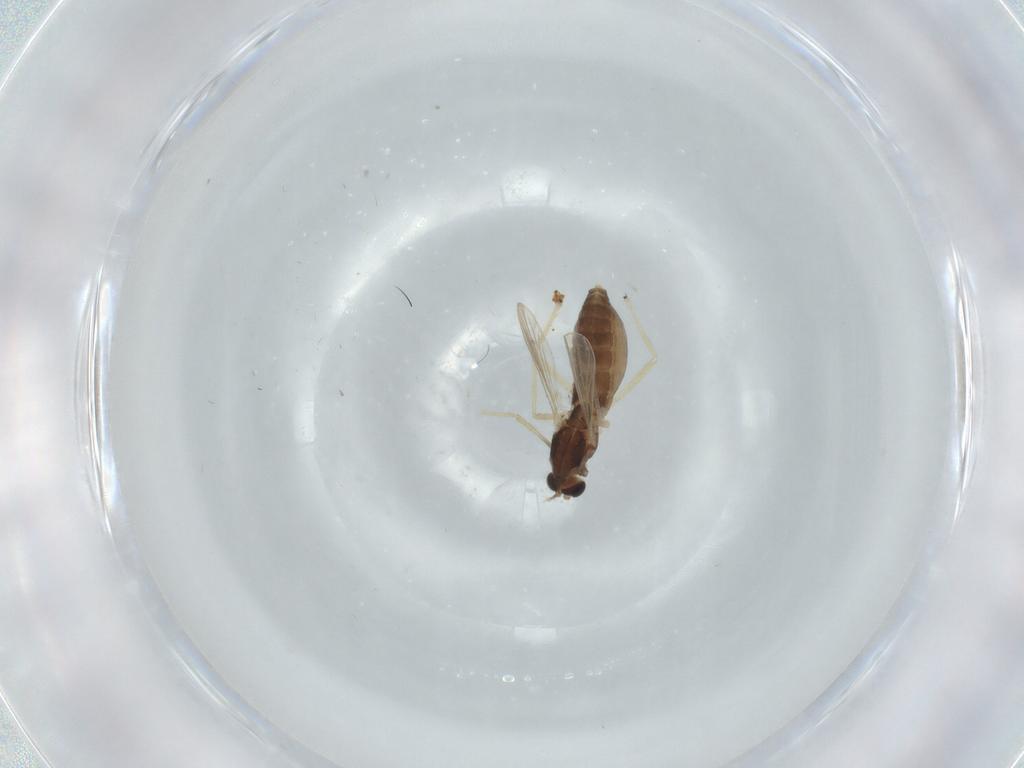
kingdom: Animalia
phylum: Arthropoda
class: Insecta
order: Diptera
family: Chironomidae
